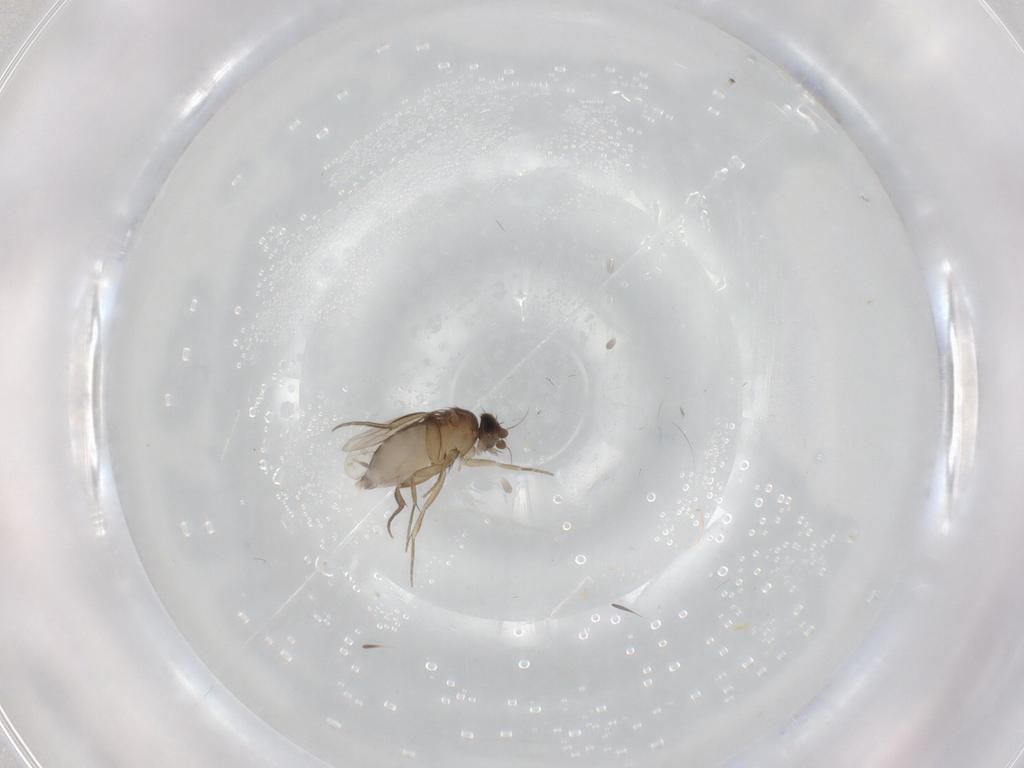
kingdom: Animalia
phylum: Arthropoda
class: Insecta
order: Diptera
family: Phoridae
